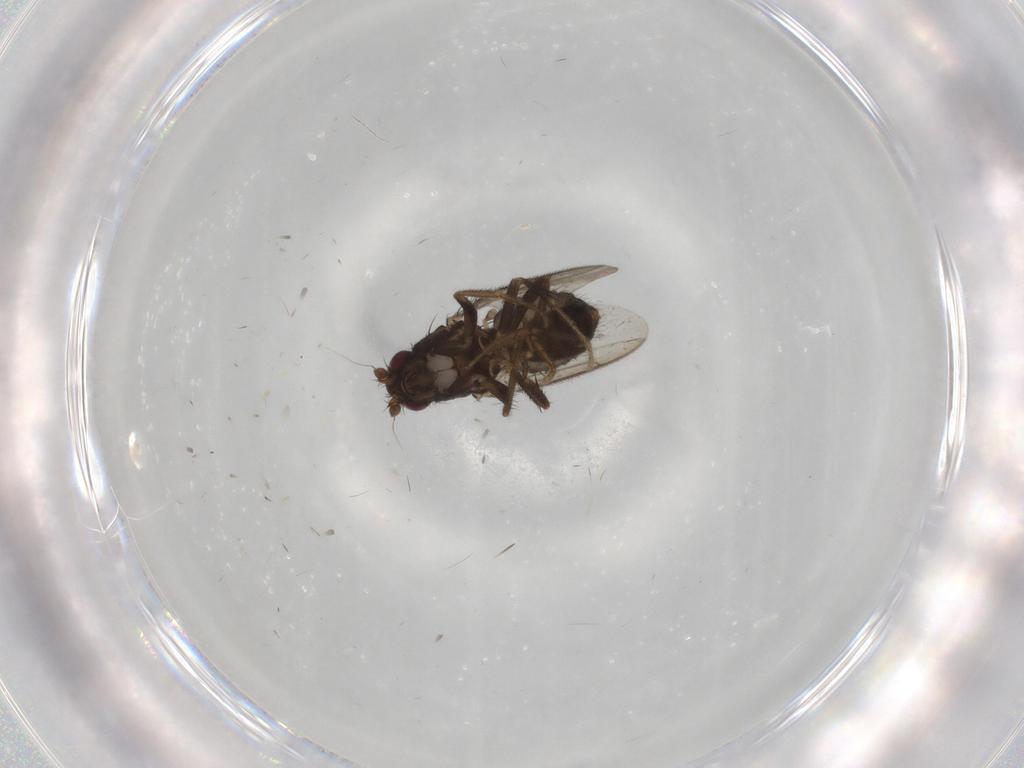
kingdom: Animalia
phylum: Arthropoda
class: Insecta
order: Diptera
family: Sphaeroceridae
